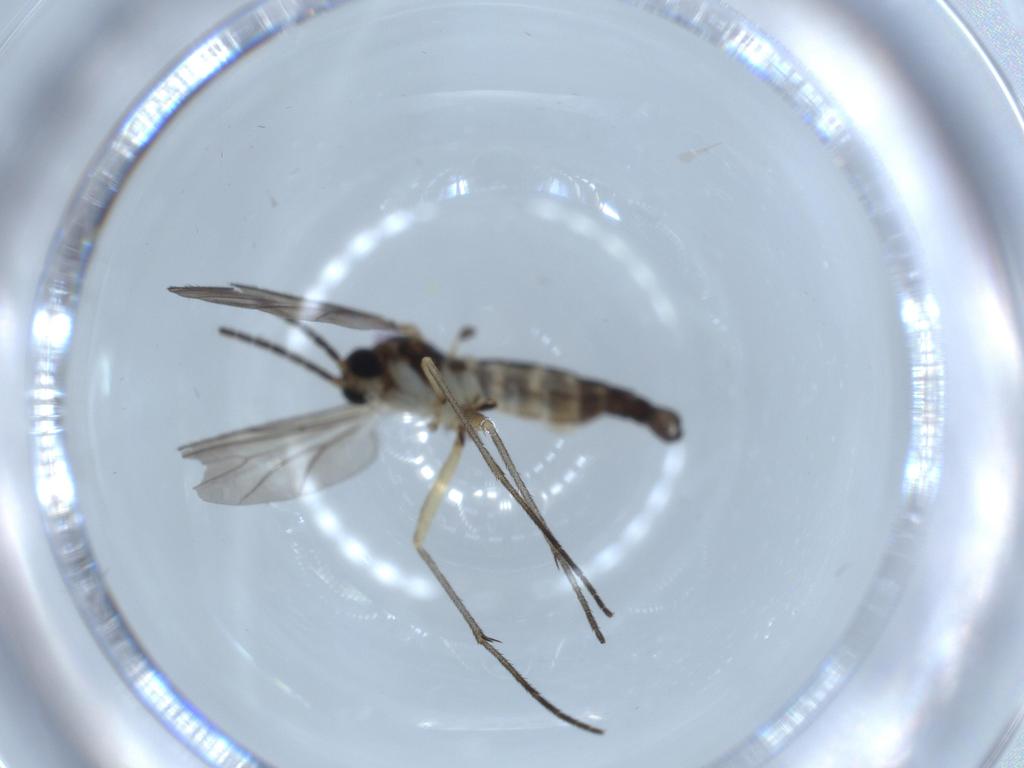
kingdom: Animalia
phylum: Arthropoda
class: Insecta
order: Diptera
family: Sciaridae
